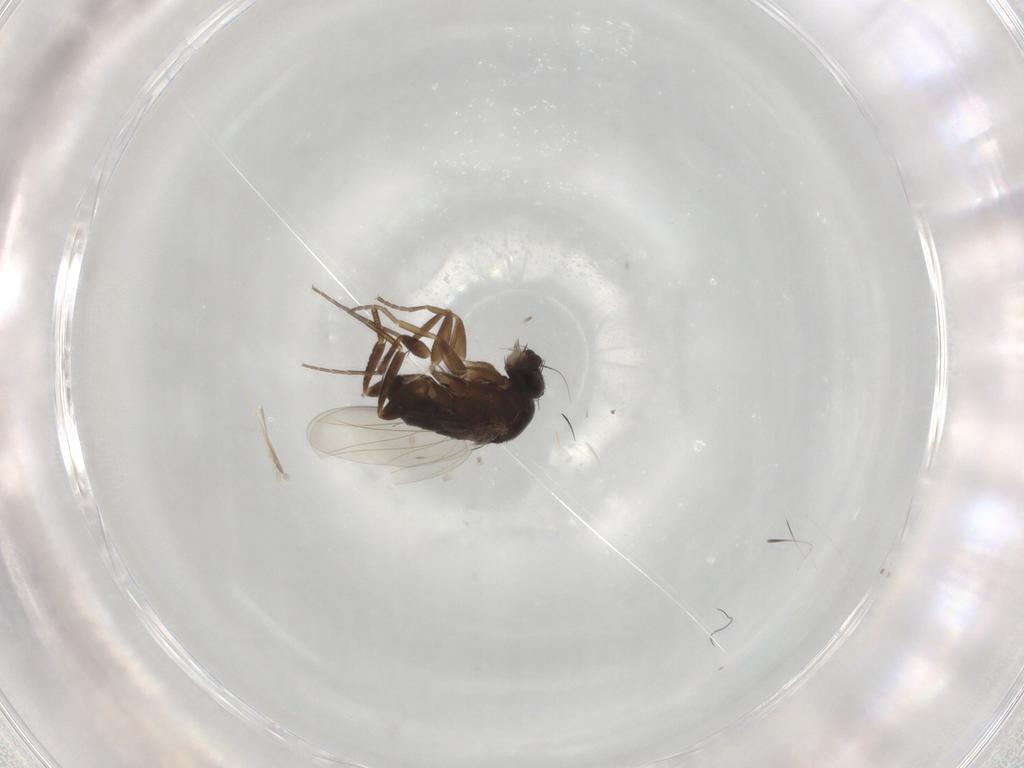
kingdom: Animalia
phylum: Arthropoda
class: Insecta
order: Diptera
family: Phoridae
